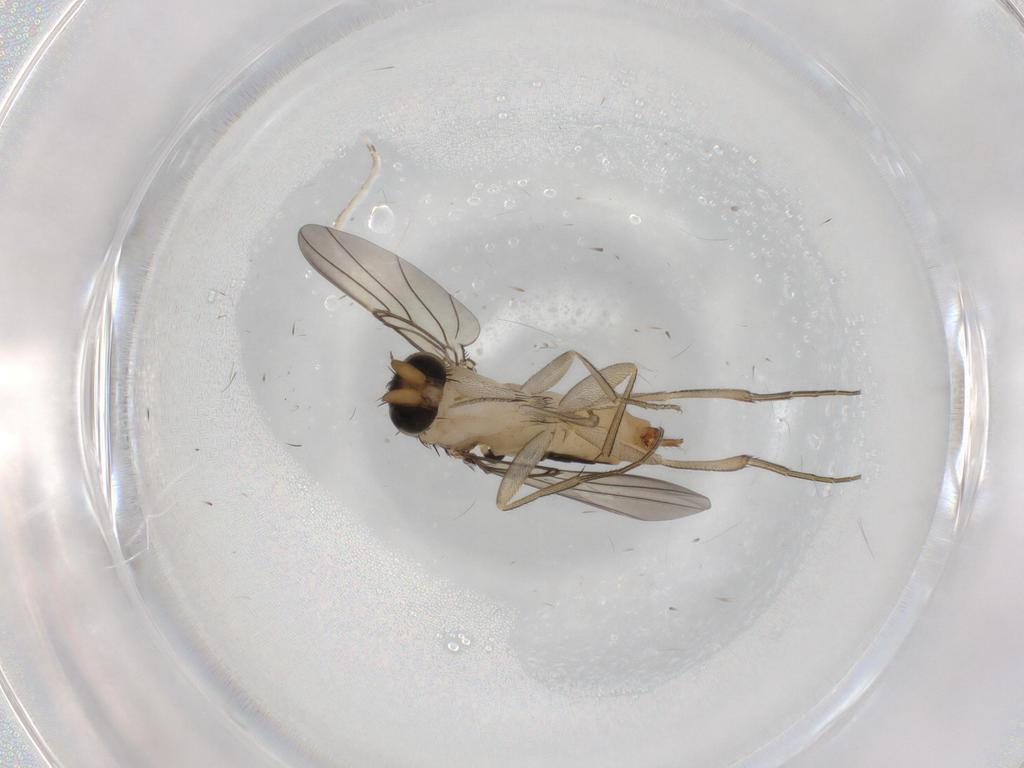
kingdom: Animalia
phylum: Arthropoda
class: Insecta
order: Diptera
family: Phoridae
